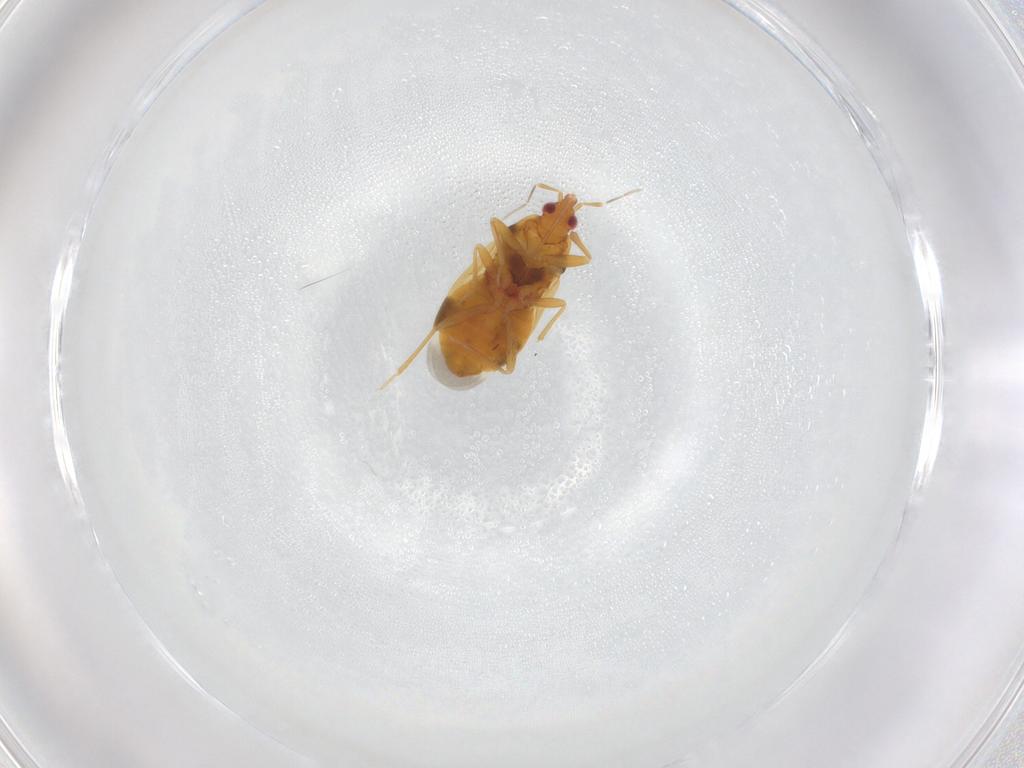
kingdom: Animalia
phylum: Arthropoda
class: Insecta
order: Hemiptera
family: Anthocoridae
